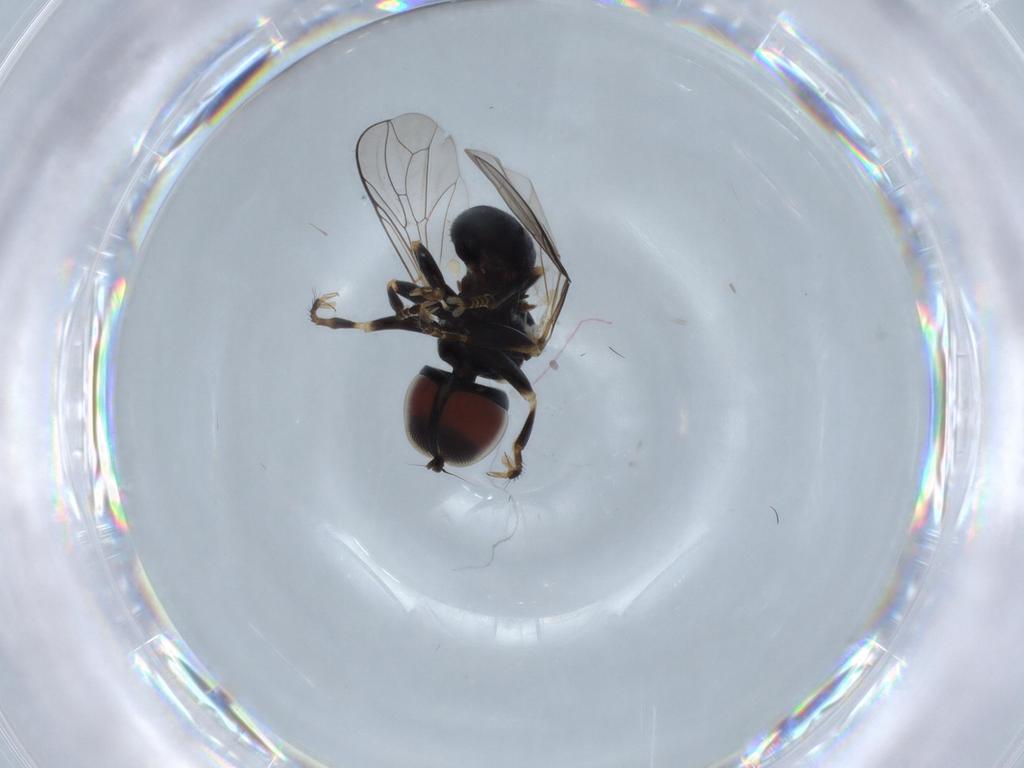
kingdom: Animalia
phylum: Arthropoda
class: Insecta
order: Diptera
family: Pipunculidae
